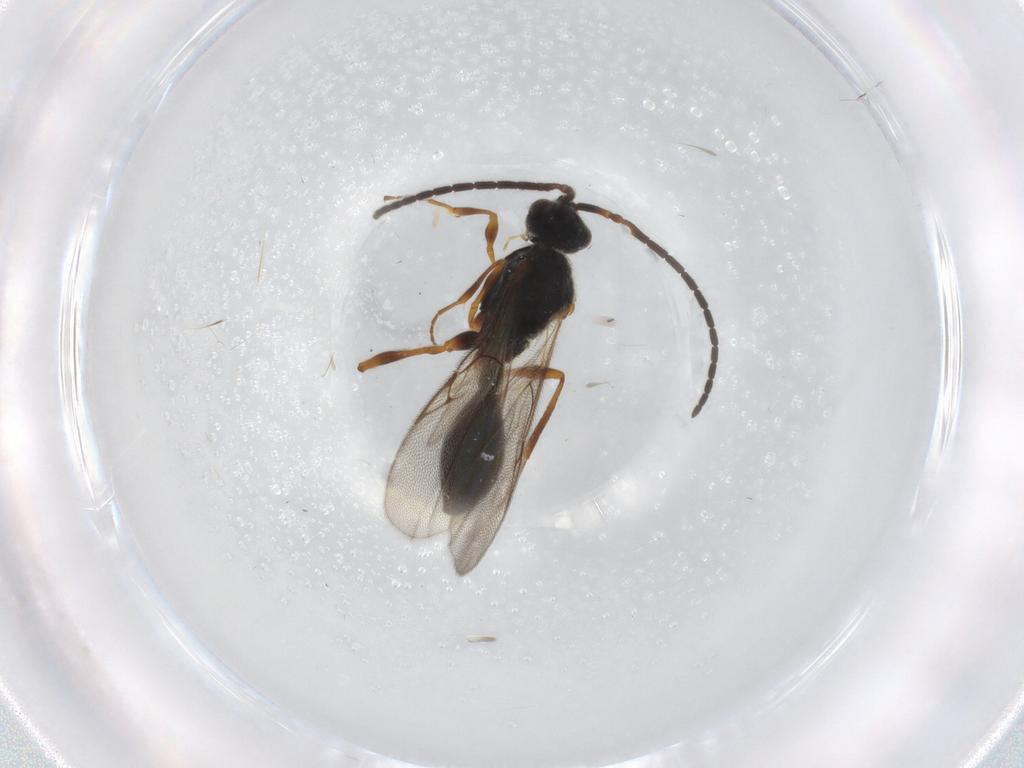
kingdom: Animalia
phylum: Arthropoda
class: Insecta
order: Hymenoptera
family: Diapriidae
